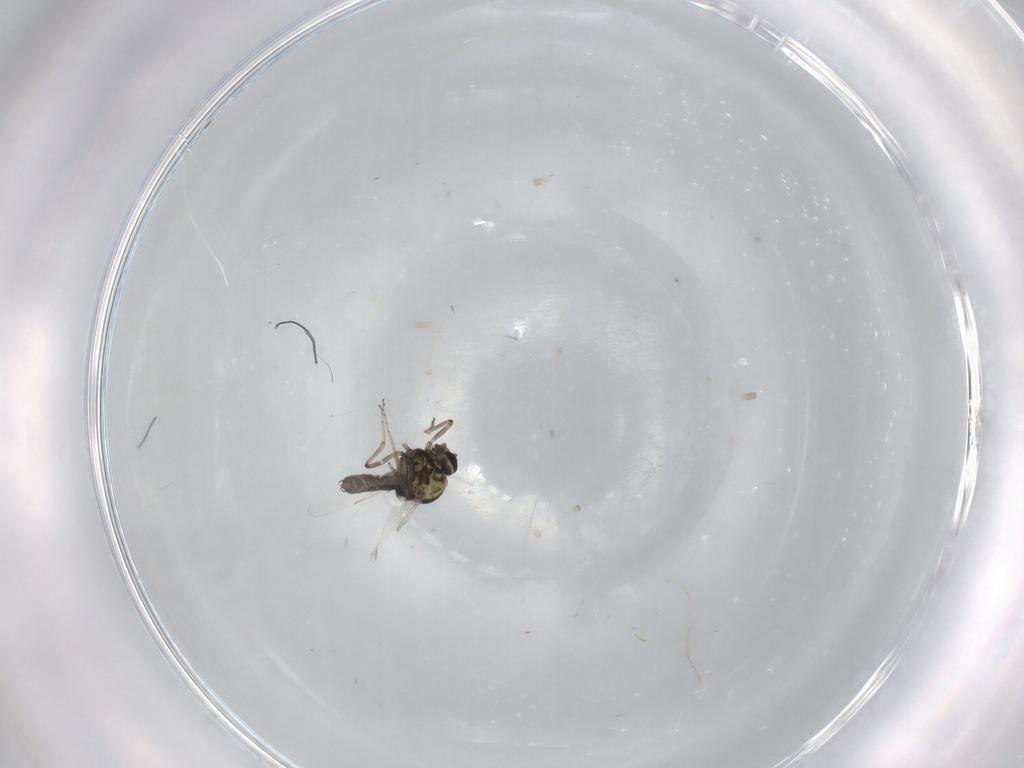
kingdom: Animalia
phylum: Arthropoda
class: Insecta
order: Diptera
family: Ceratopogonidae
